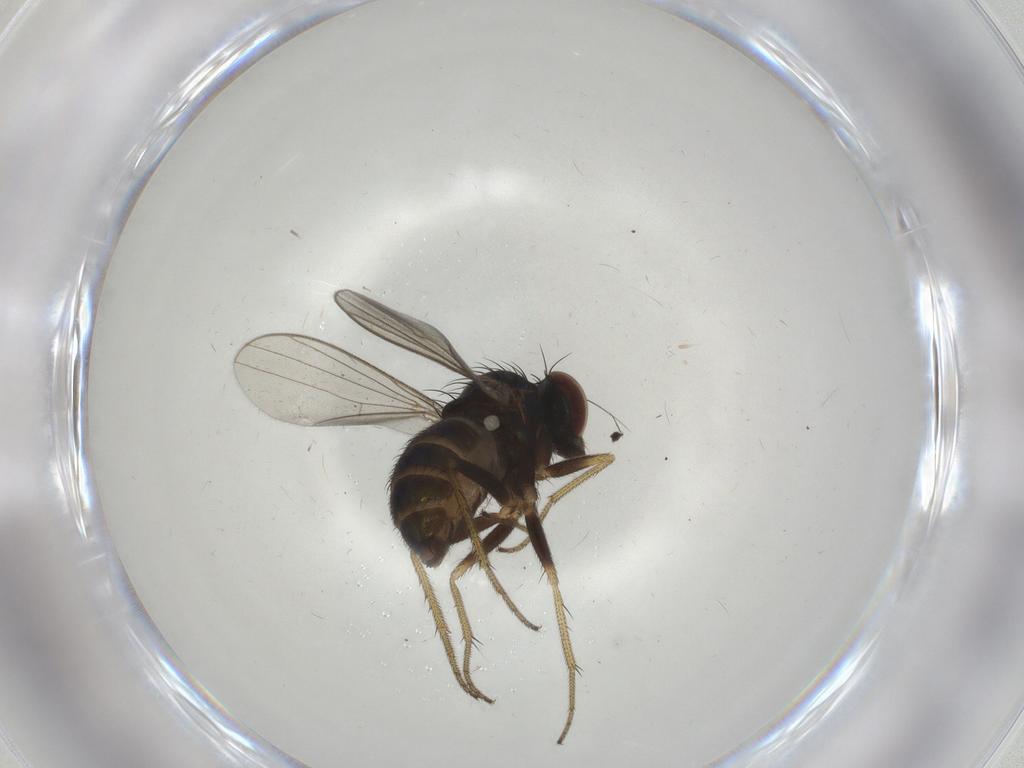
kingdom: Animalia
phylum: Arthropoda
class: Insecta
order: Diptera
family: Dolichopodidae
